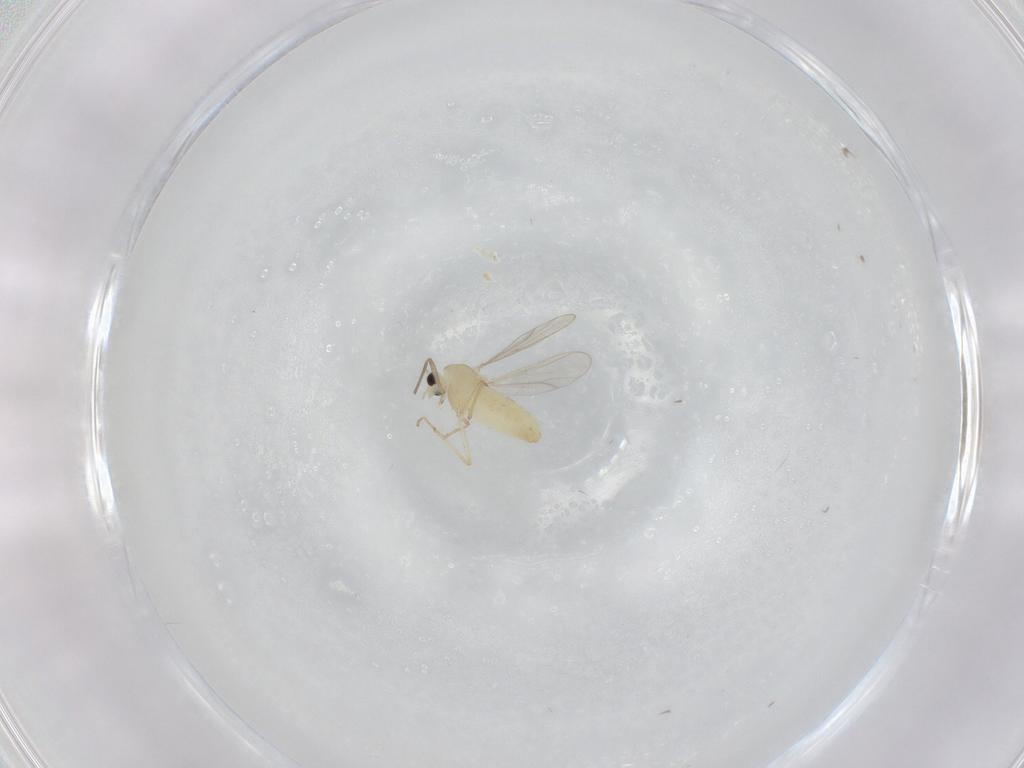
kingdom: Animalia
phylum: Arthropoda
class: Insecta
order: Diptera
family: Chironomidae
